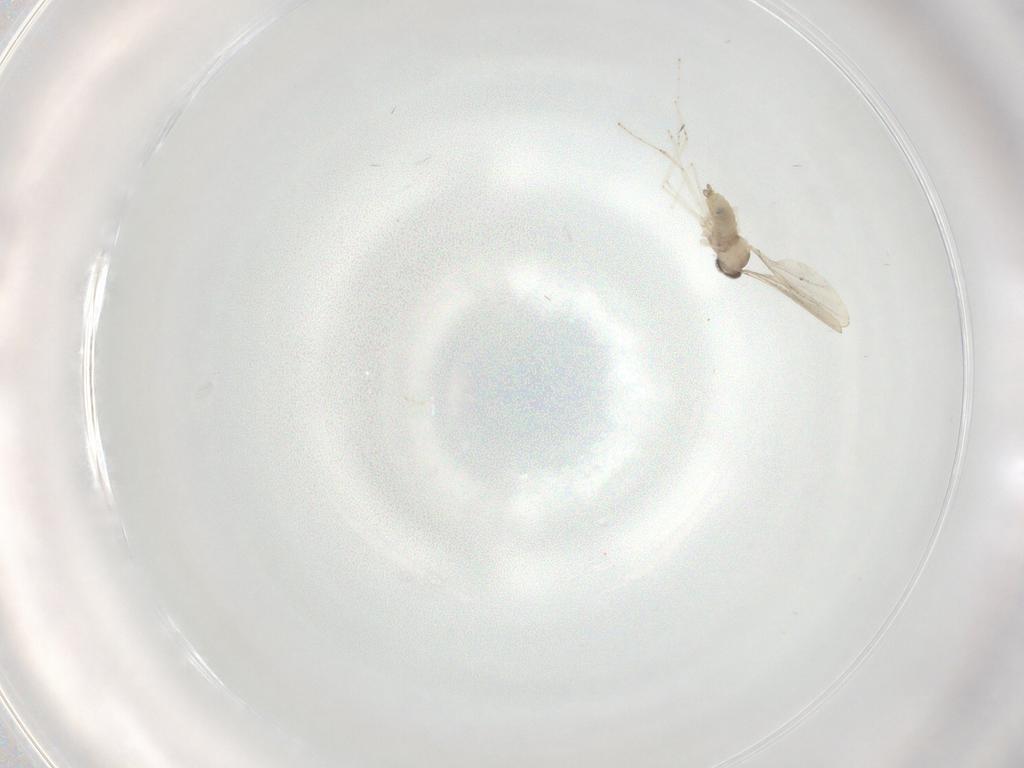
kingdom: Animalia
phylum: Arthropoda
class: Insecta
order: Diptera
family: Cecidomyiidae
